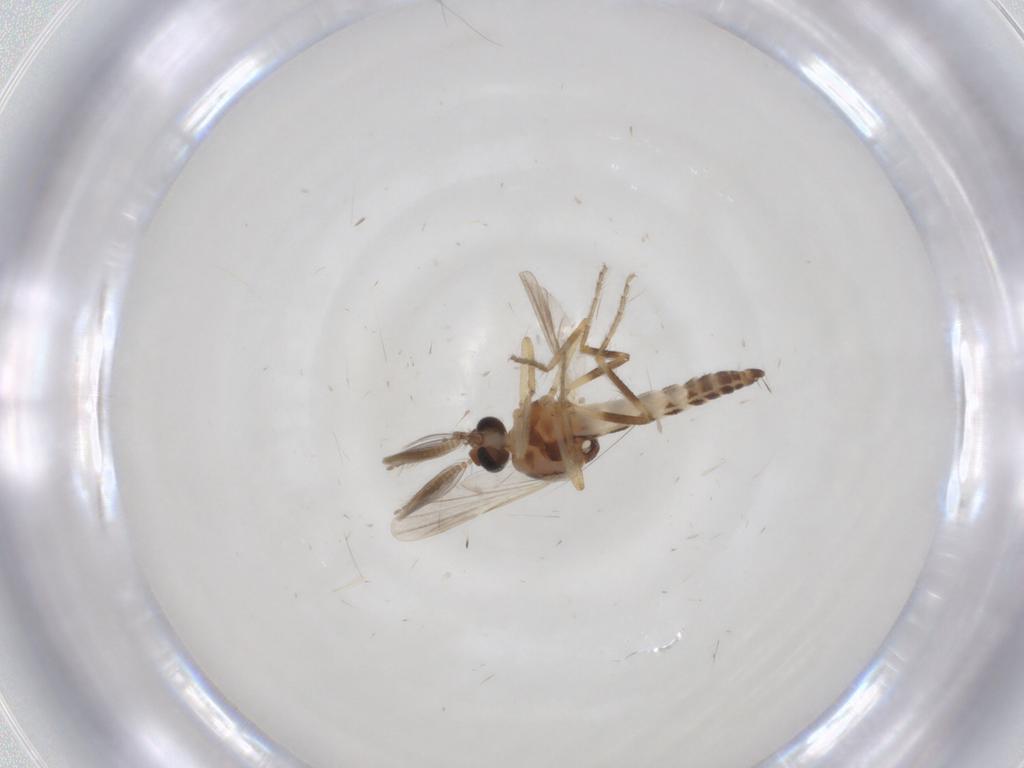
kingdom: Animalia
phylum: Arthropoda
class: Insecta
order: Diptera
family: Ceratopogonidae
